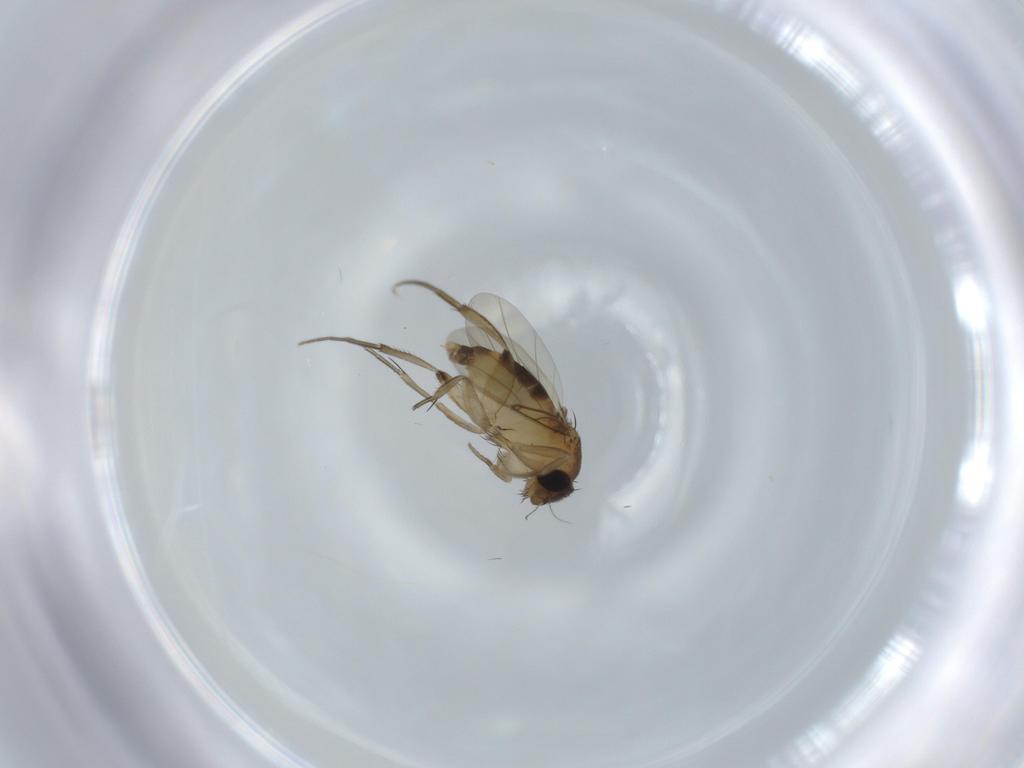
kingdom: Animalia
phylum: Arthropoda
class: Insecta
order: Diptera
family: Phoridae
